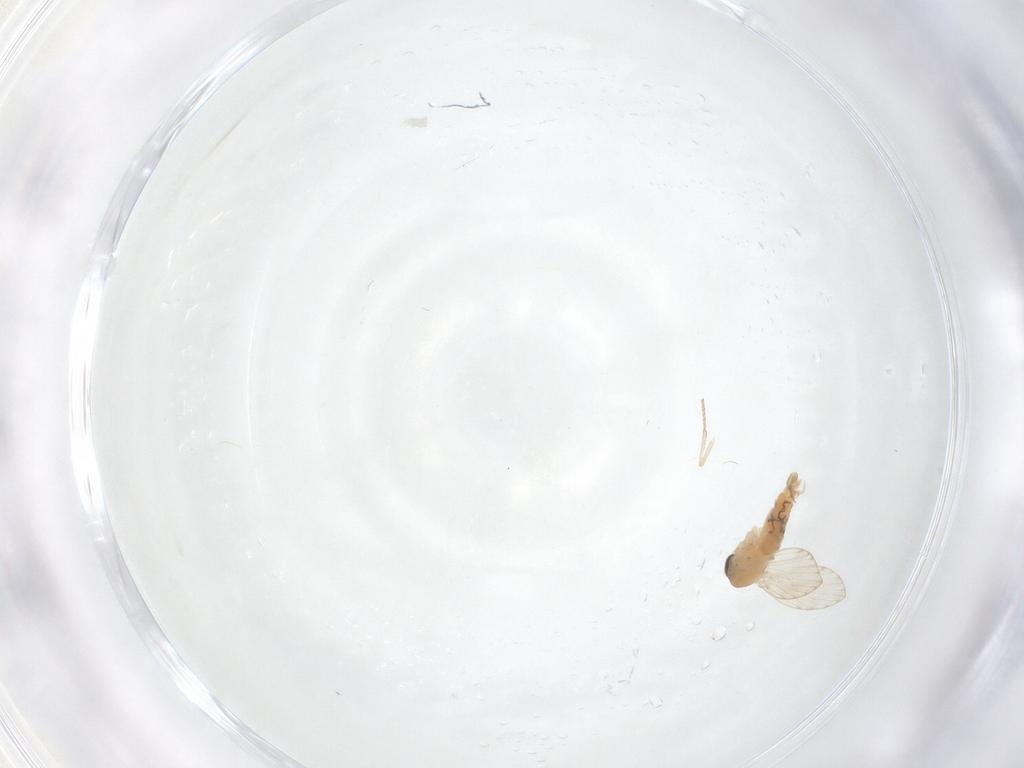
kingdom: Animalia
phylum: Arthropoda
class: Insecta
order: Diptera
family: Psychodidae
